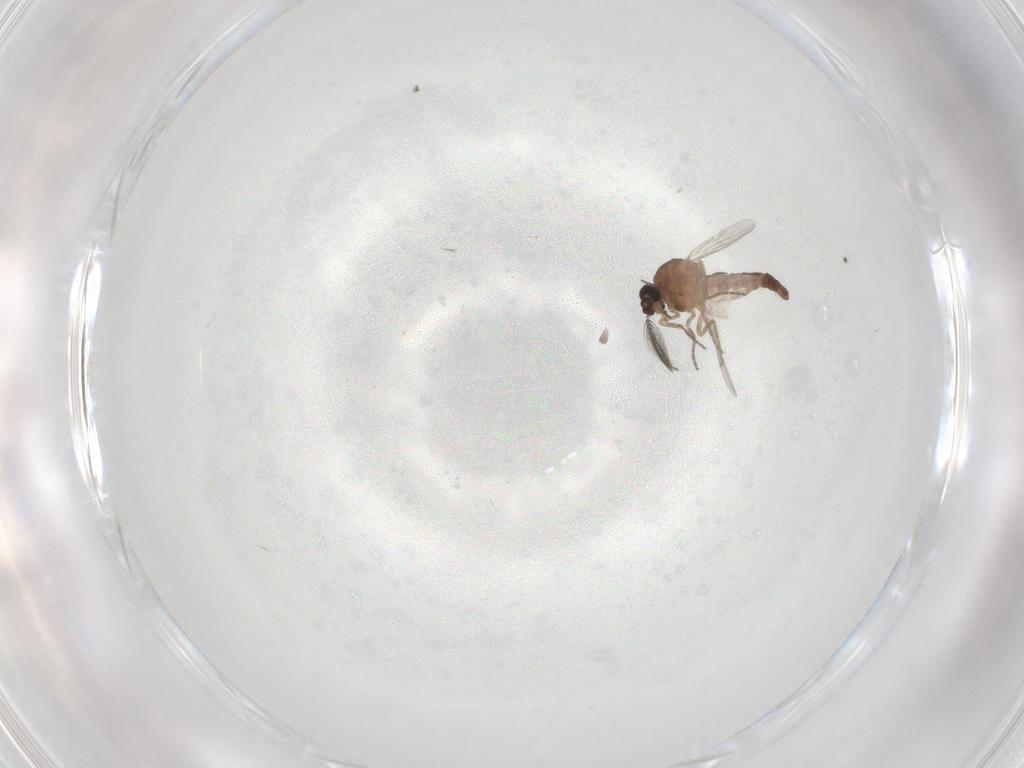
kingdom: Animalia
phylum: Arthropoda
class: Insecta
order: Diptera
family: Ceratopogonidae
